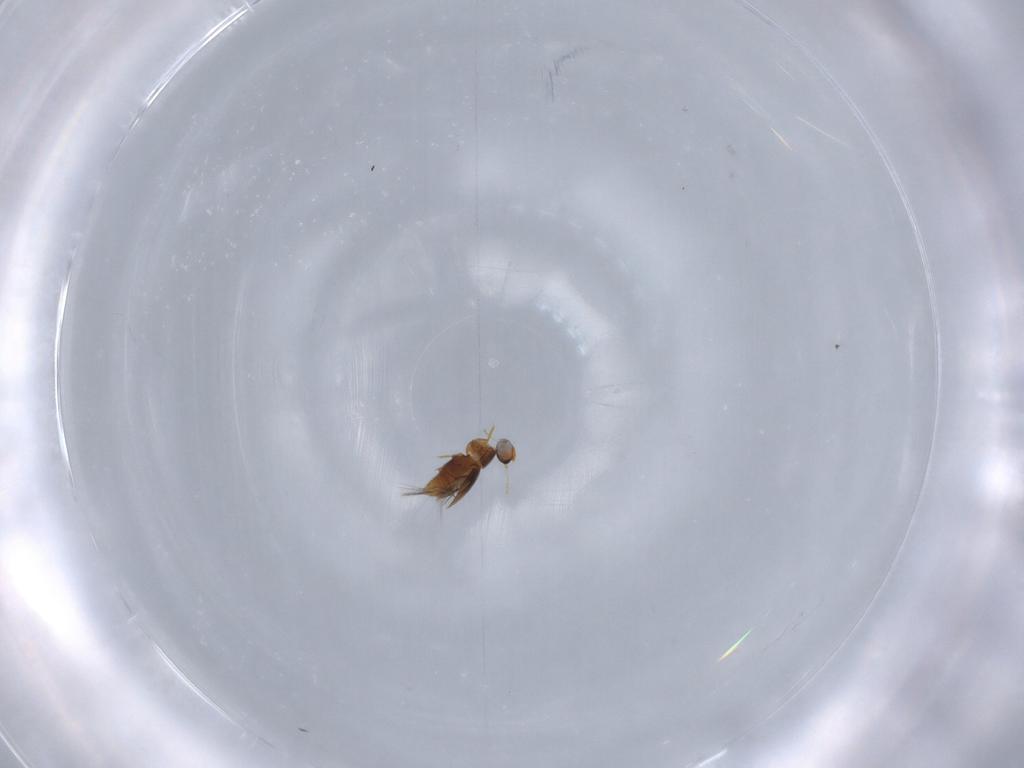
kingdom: Animalia
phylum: Arthropoda
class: Insecta
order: Coleoptera
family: Ptiliidae
